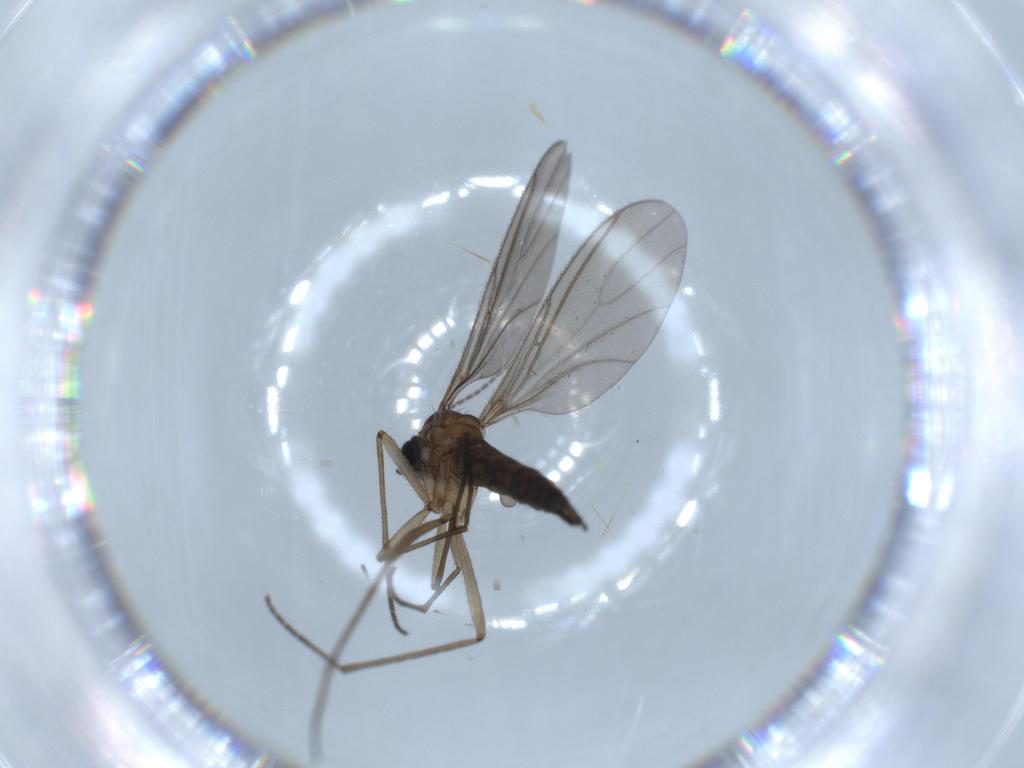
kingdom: Animalia
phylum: Arthropoda
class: Insecta
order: Diptera
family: Sciaridae
